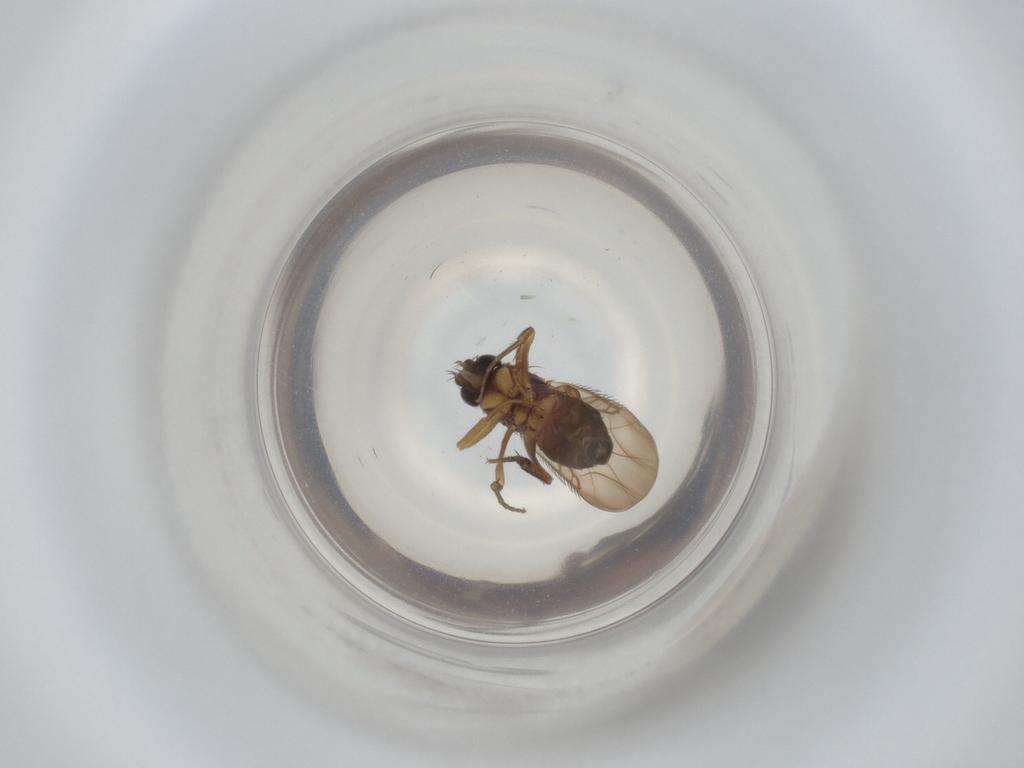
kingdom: Animalia
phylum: Arthropoda
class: Insecta
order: Diptera
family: Phoridae
